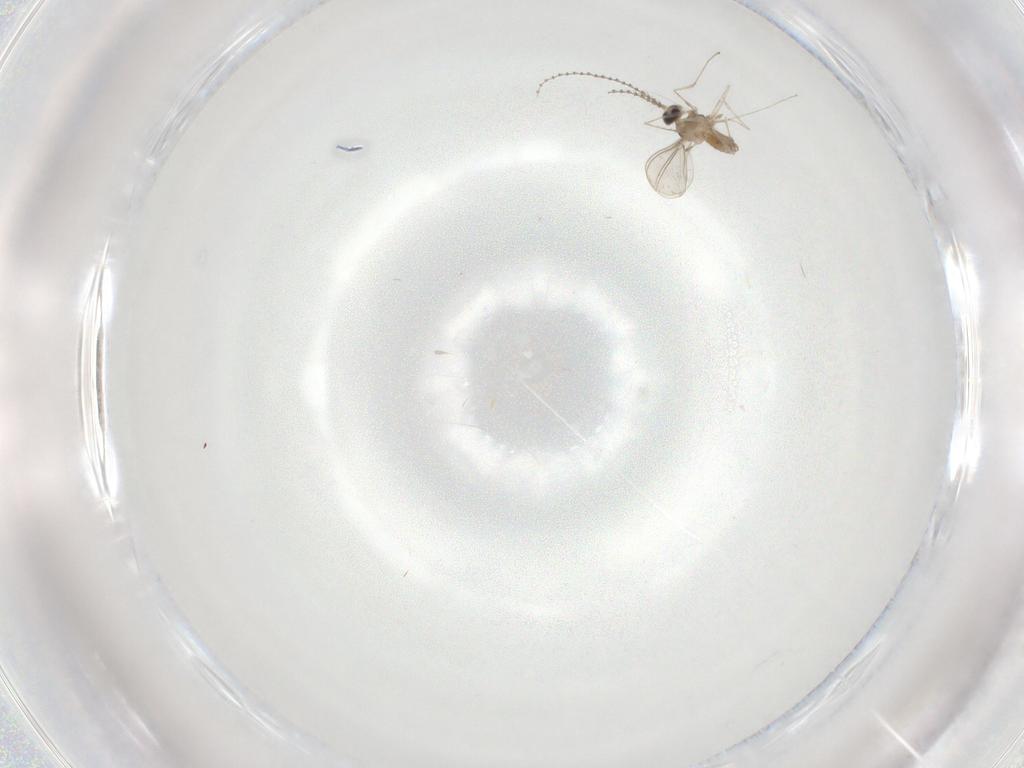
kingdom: Animalia
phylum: Arthropoda
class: Insecta
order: Diptera
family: Cecidomyiidae
